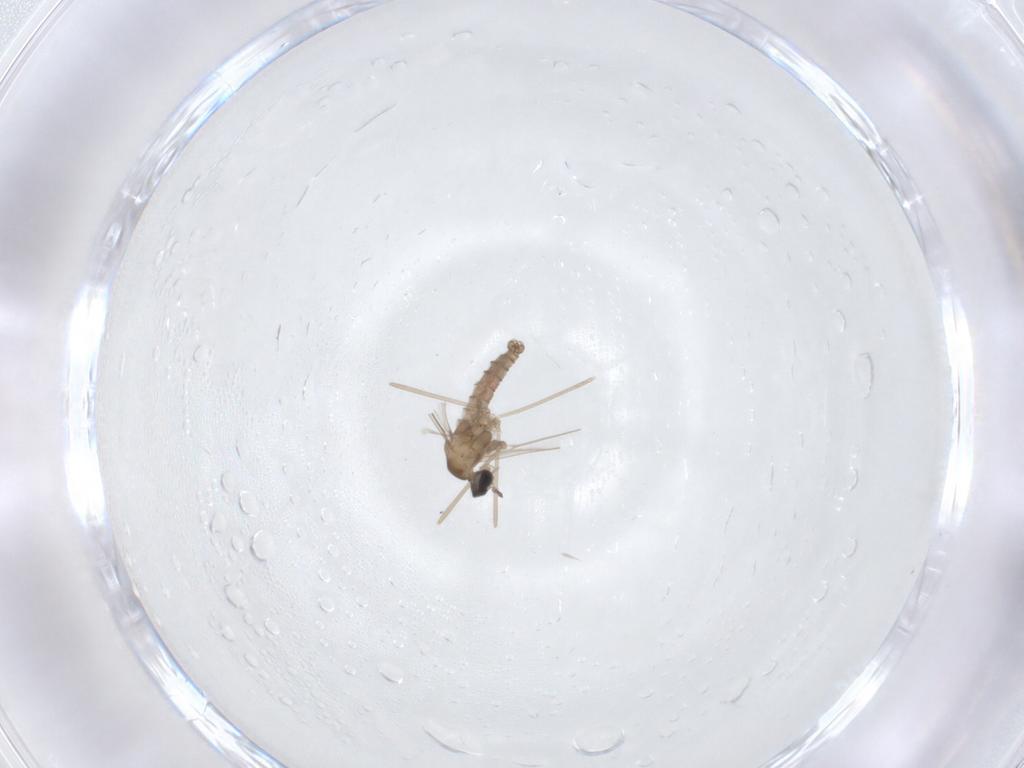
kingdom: Animalia
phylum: Arthropoda
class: Insecta
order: Diptera
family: Cecidomyiidae
